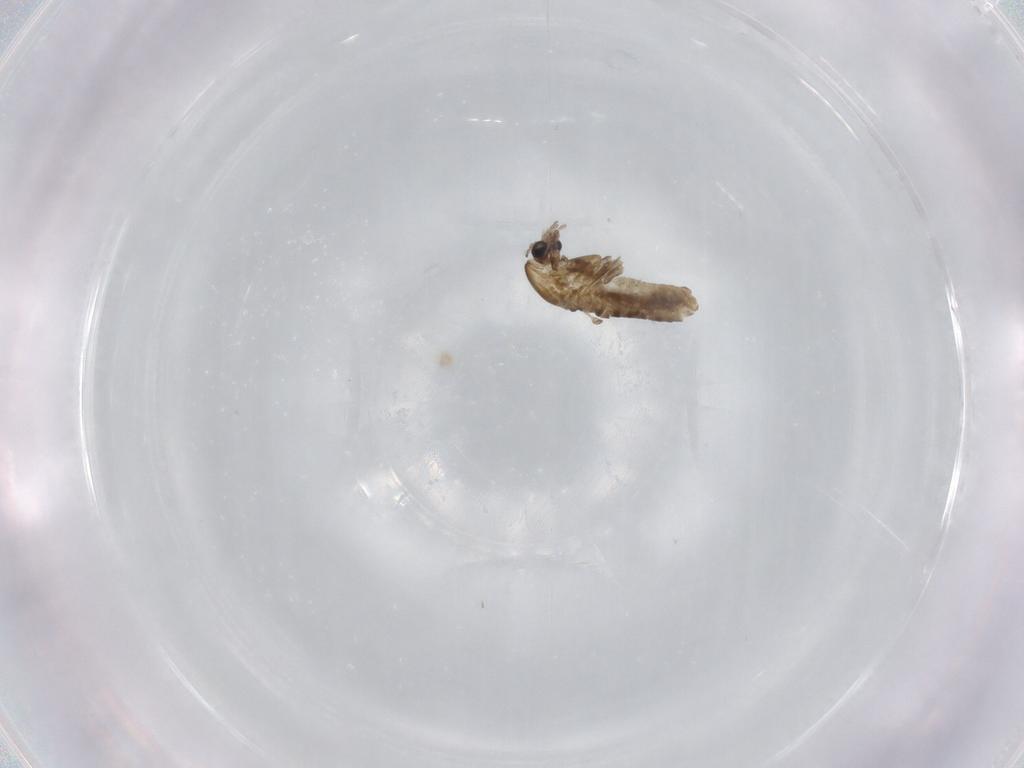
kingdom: Animalia
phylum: Arthropoda
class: Insecta
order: Diptera
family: Chironomidae
